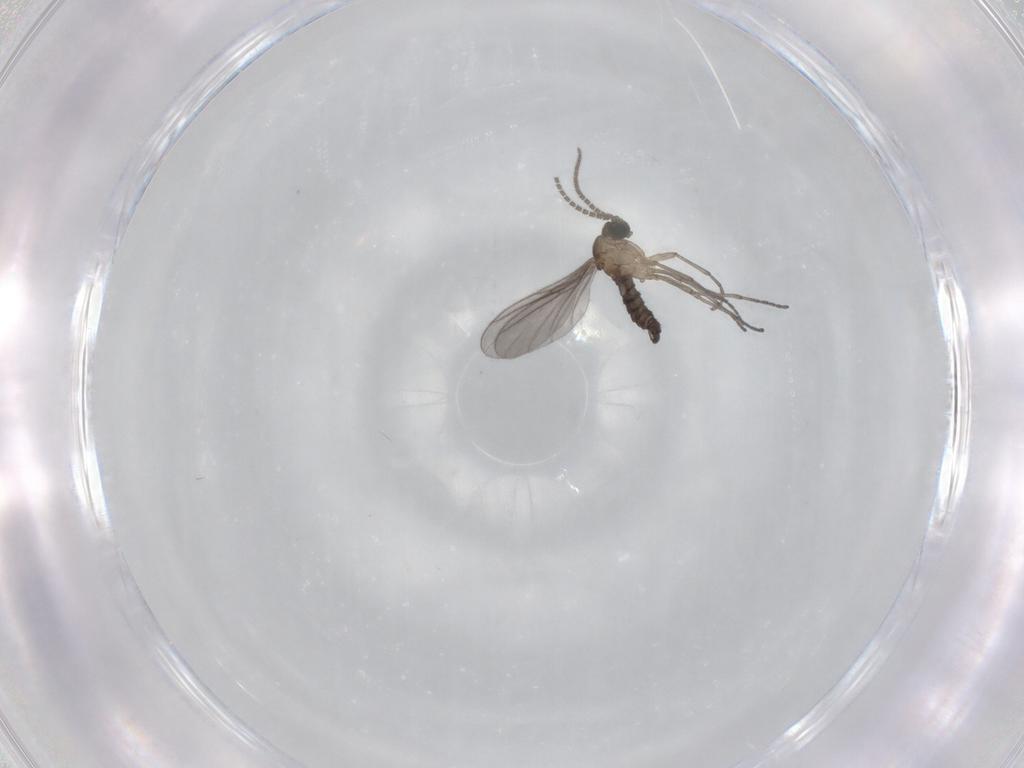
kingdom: Animalia
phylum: Arthropoda
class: Insecta
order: Diptera
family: Sciaridae
